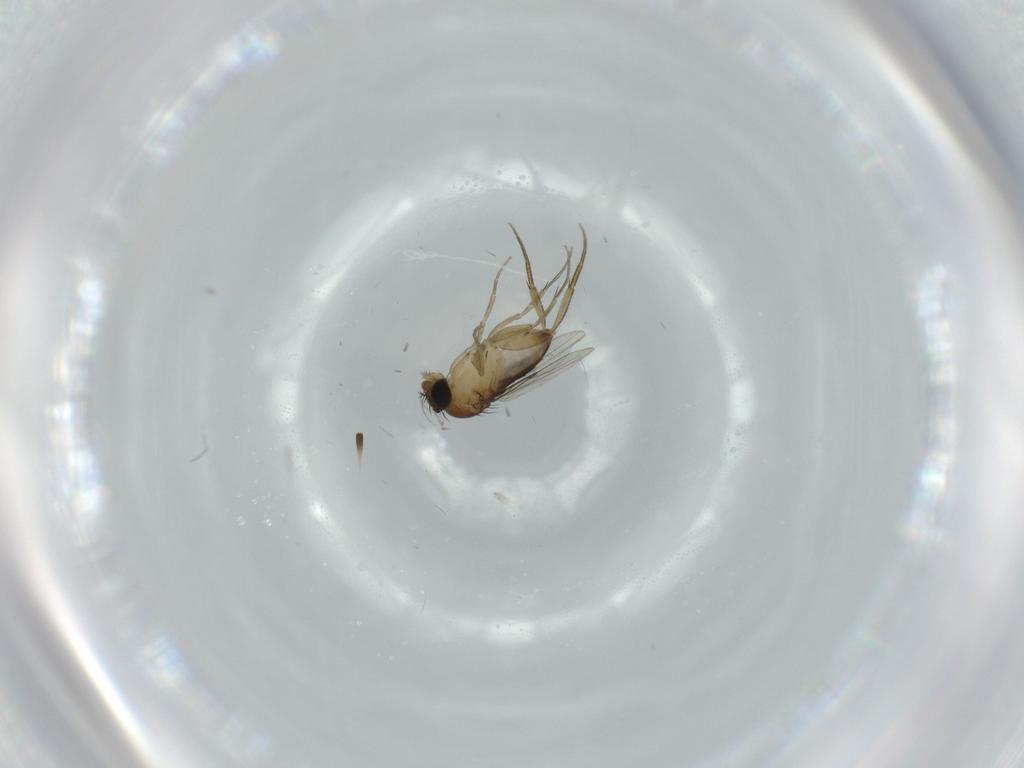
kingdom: Animalia
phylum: Arthropoda
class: Insecta
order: Diptera
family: Phoridae
